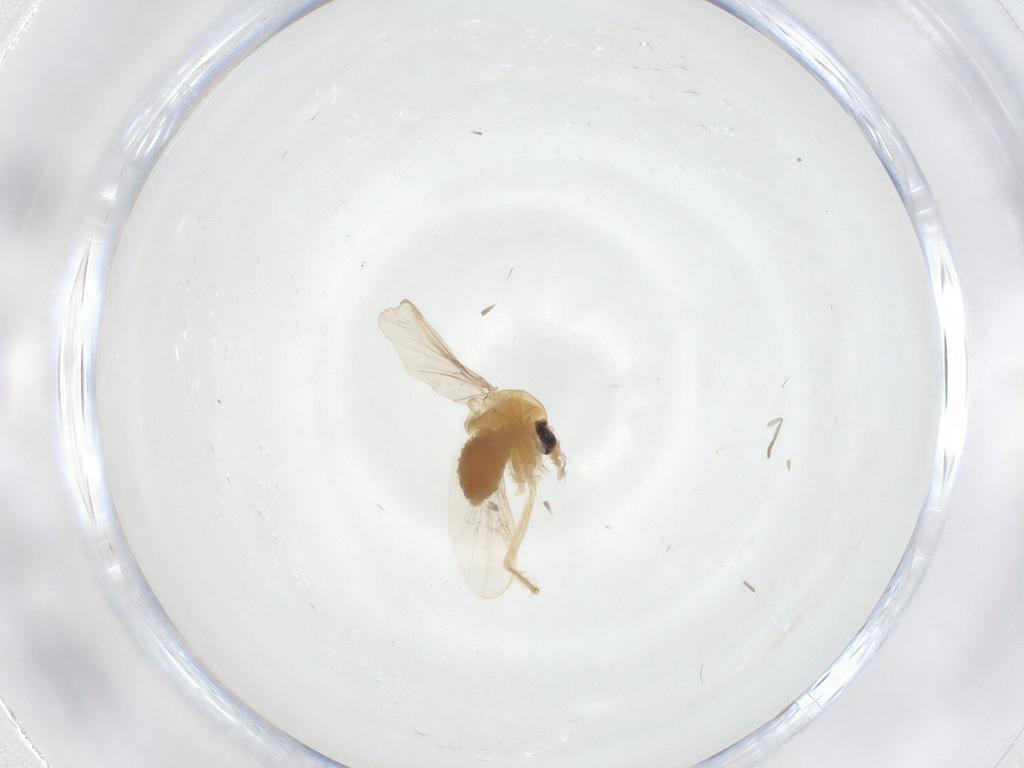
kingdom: Animalia
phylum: Arthropoda
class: Insecta
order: Diptera
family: Chironomidae
